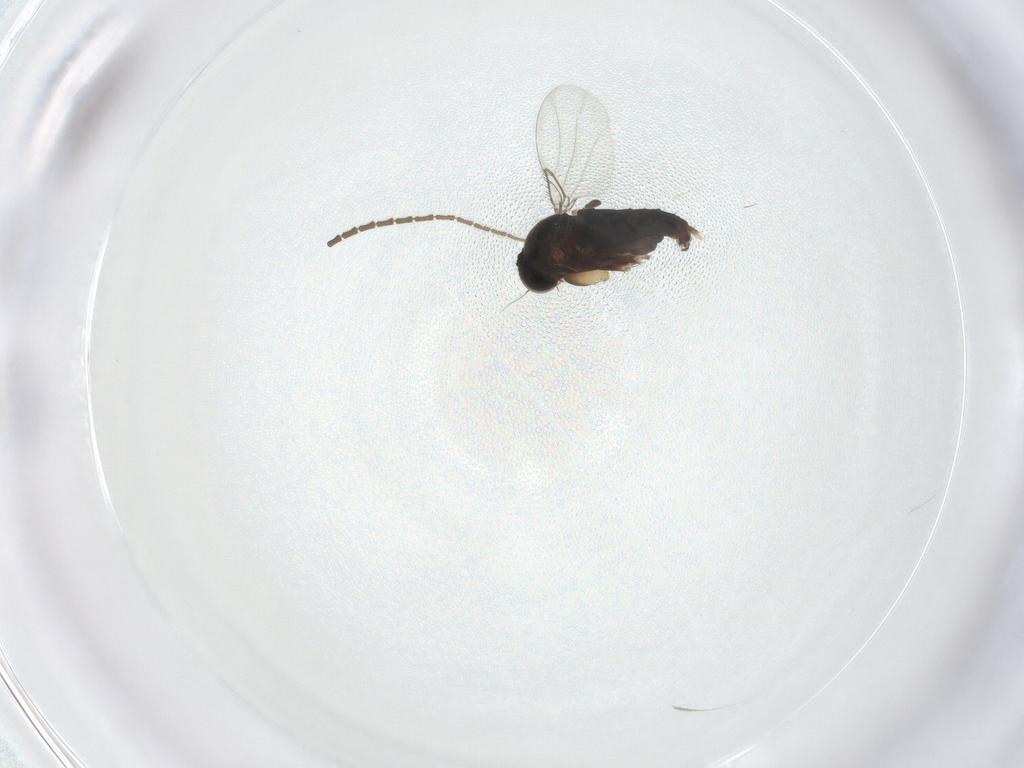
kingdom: Animalia
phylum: Arthropoda
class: Insecta
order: Diptera
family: Phoridae
